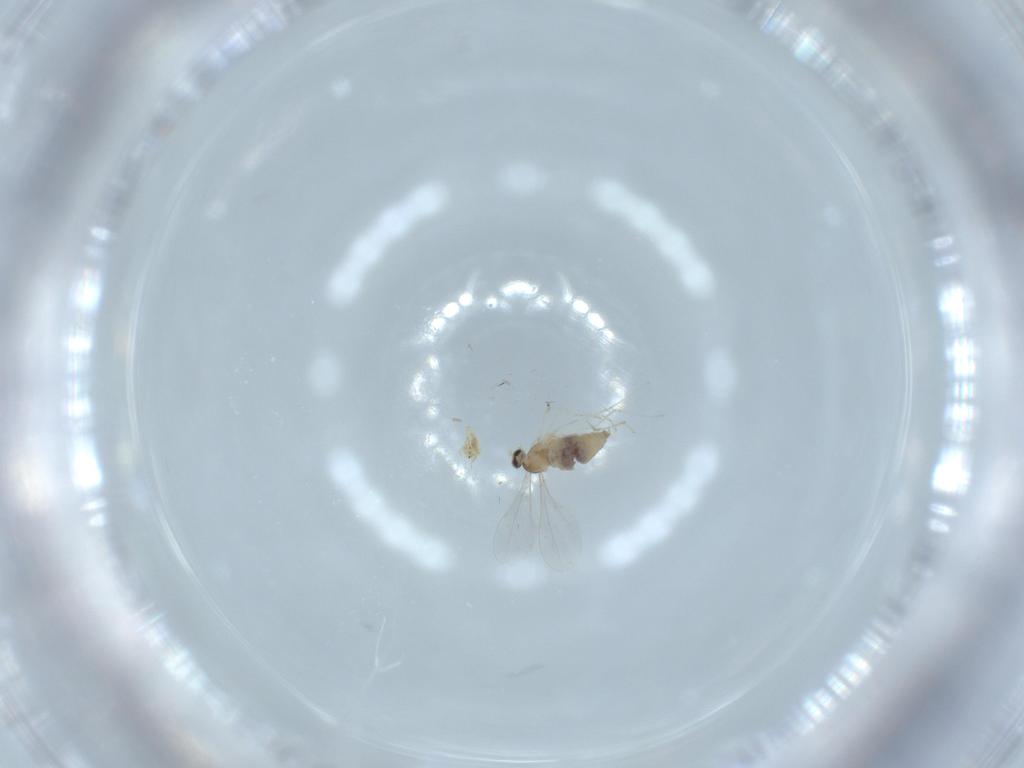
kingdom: Animalia
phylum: Arthropoda
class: Insecta
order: Diptera
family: Cecidomyiidae
